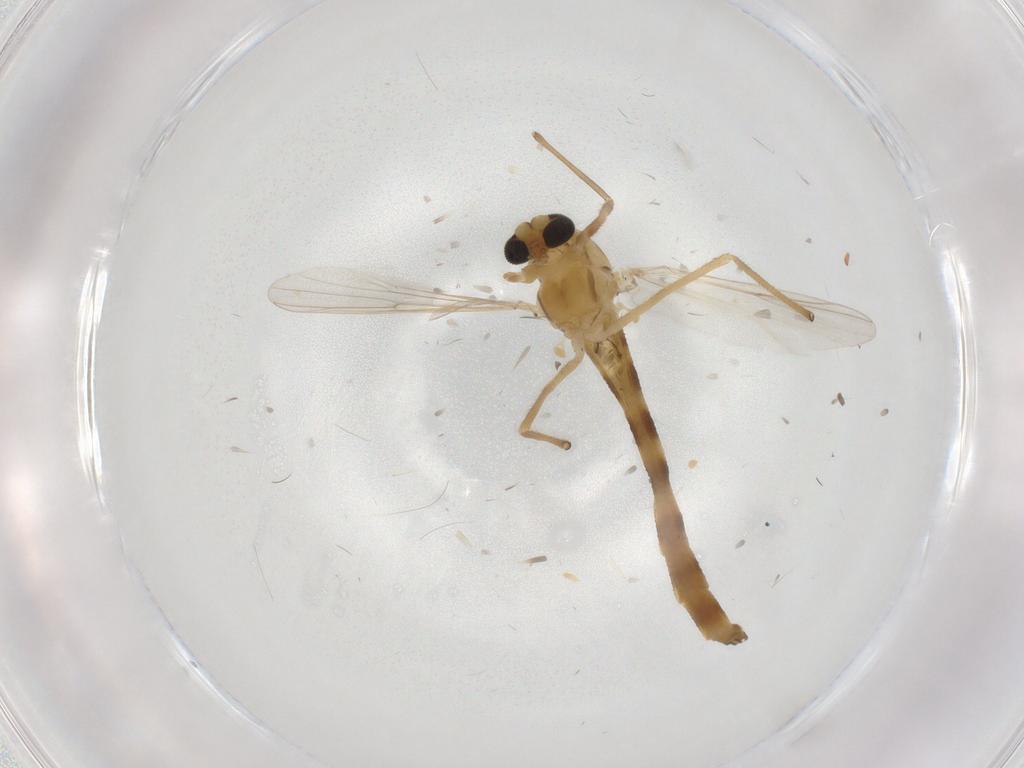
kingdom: Animalia
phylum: Arthropoda
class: Insecta
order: Diptera
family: Chironomidae
